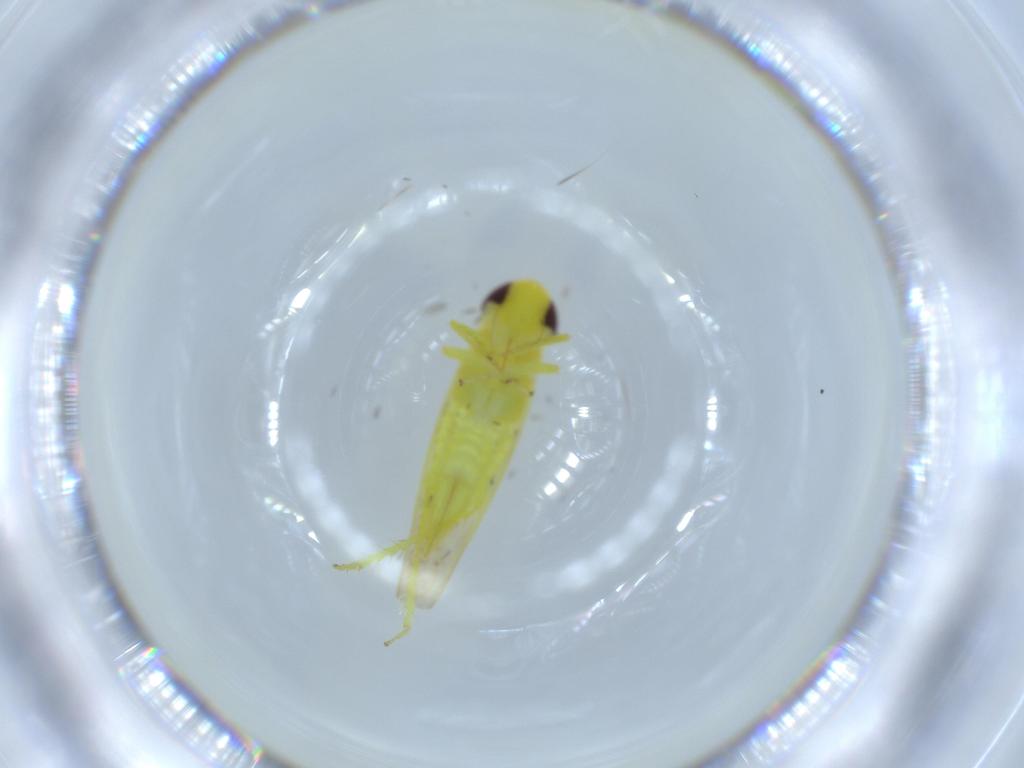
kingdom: Animalia
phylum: Arthropoda
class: Insecta
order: Hemiptera
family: Cicadellidae
